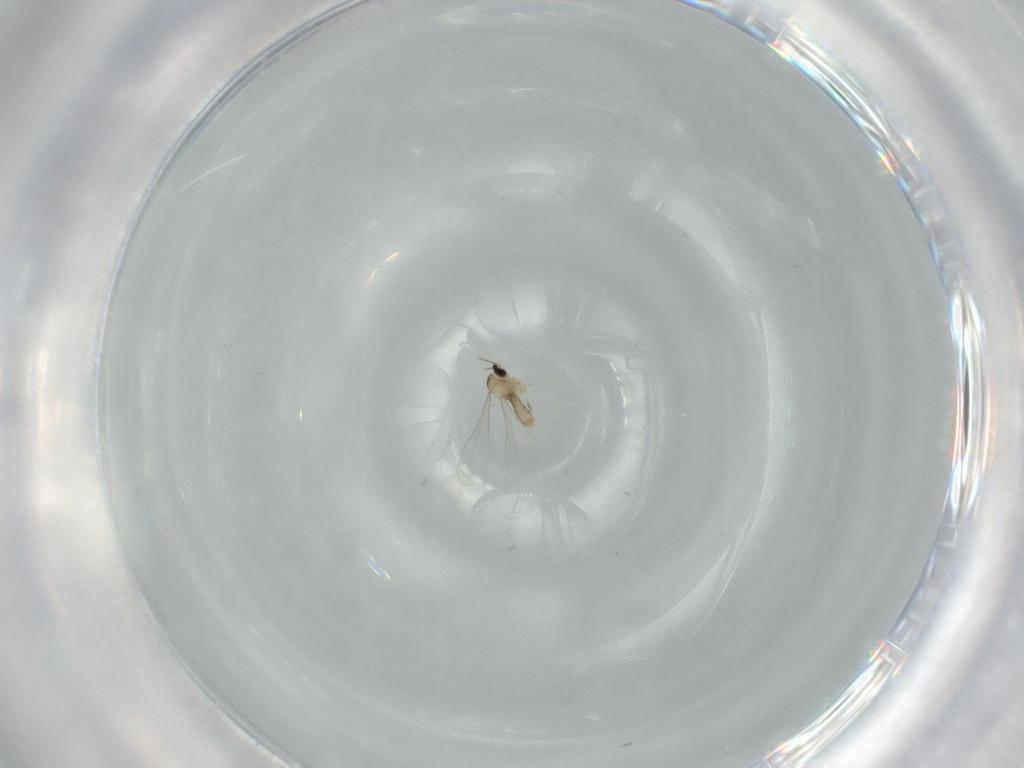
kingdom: Animalia
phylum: Arthropoda
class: Insecta
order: Diptera
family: Cecidomyiidae
